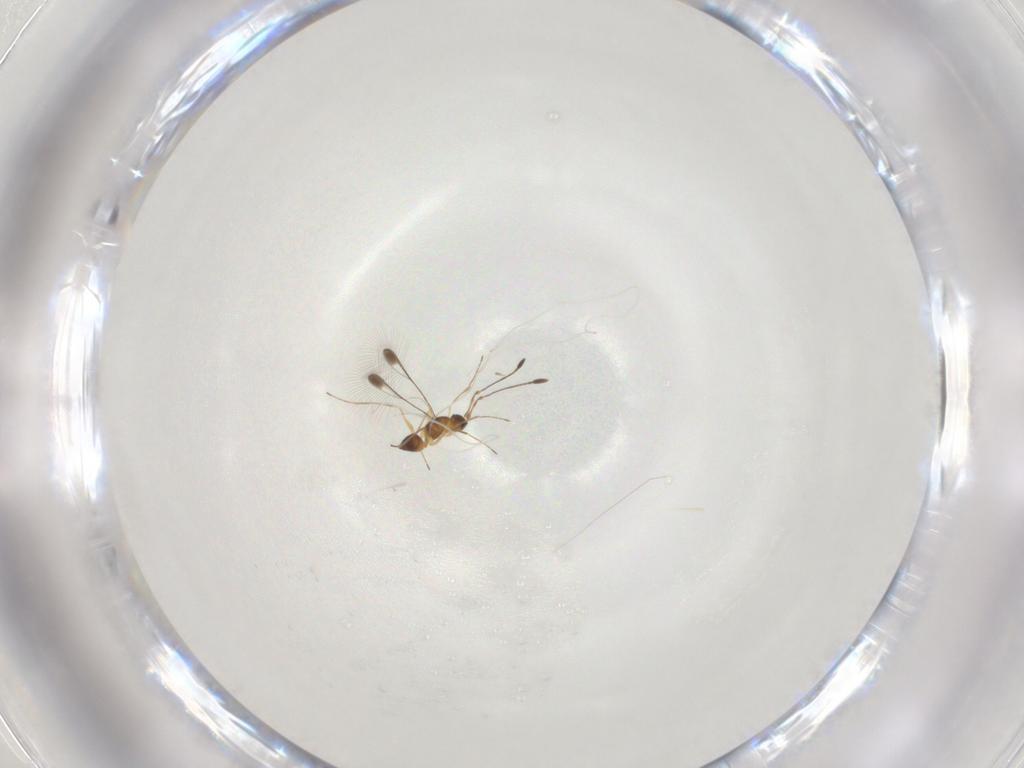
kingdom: Animalia
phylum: Arthropoda
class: Insecta
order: Hymenoptera
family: Mymaridae
